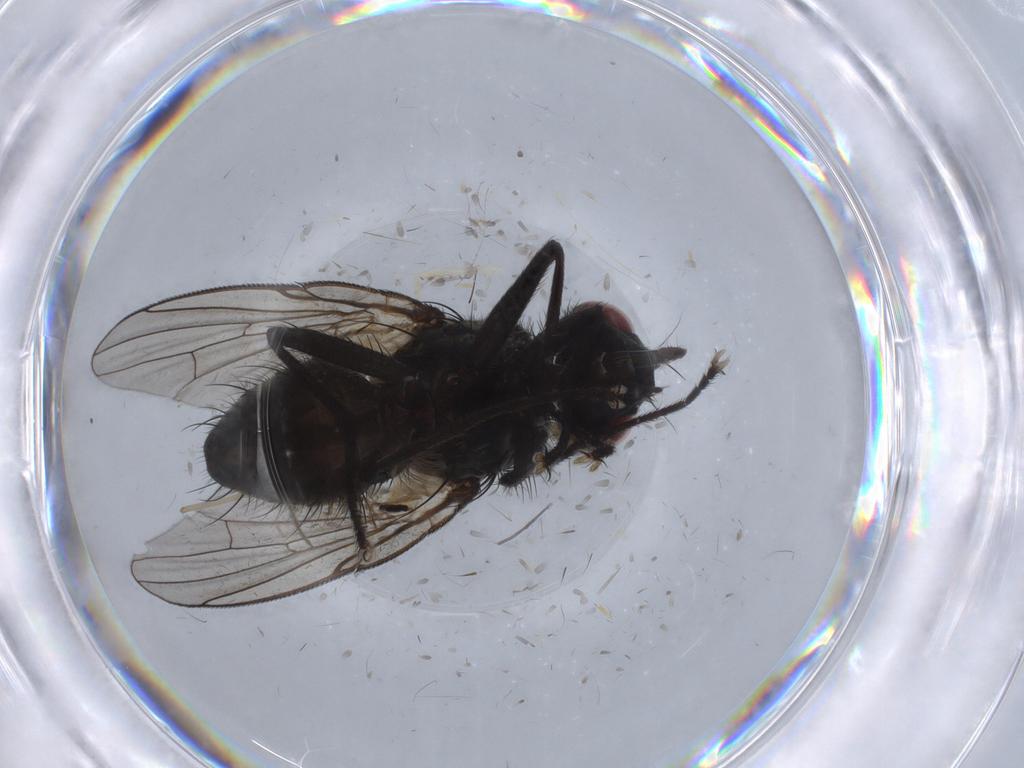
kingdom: Animalia
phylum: Arthropoda
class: Insecta
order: Diptera
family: Muscidae
